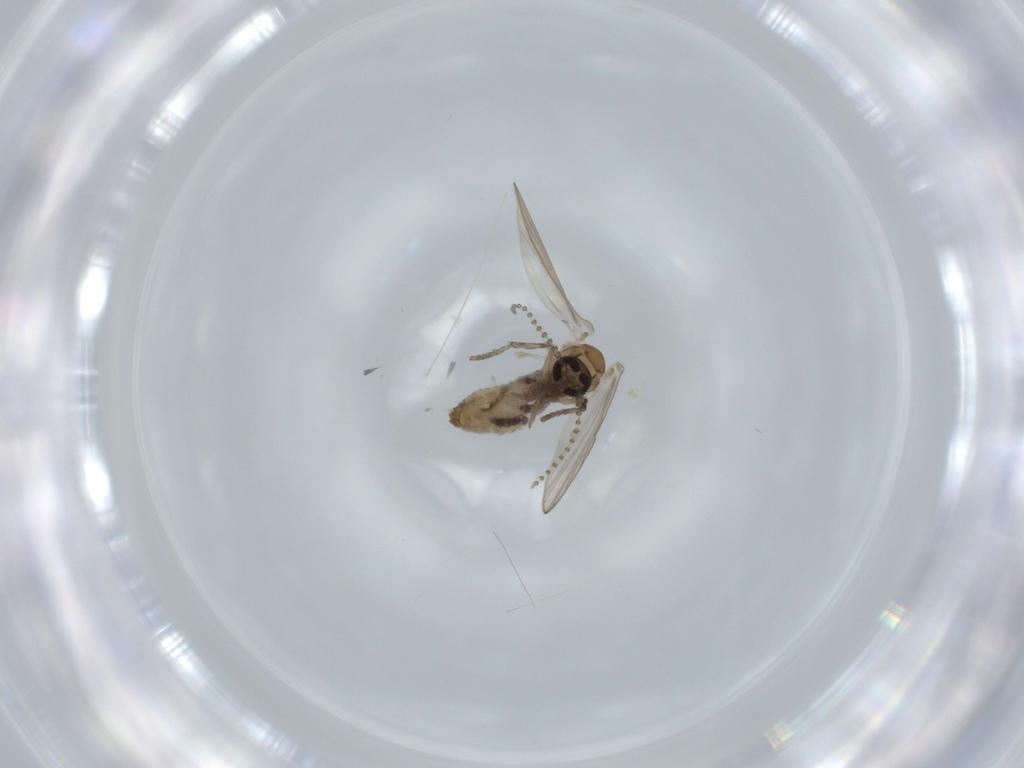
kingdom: Animalia
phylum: Arthropoda
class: Insecta
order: Diptera
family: Psychodidae
